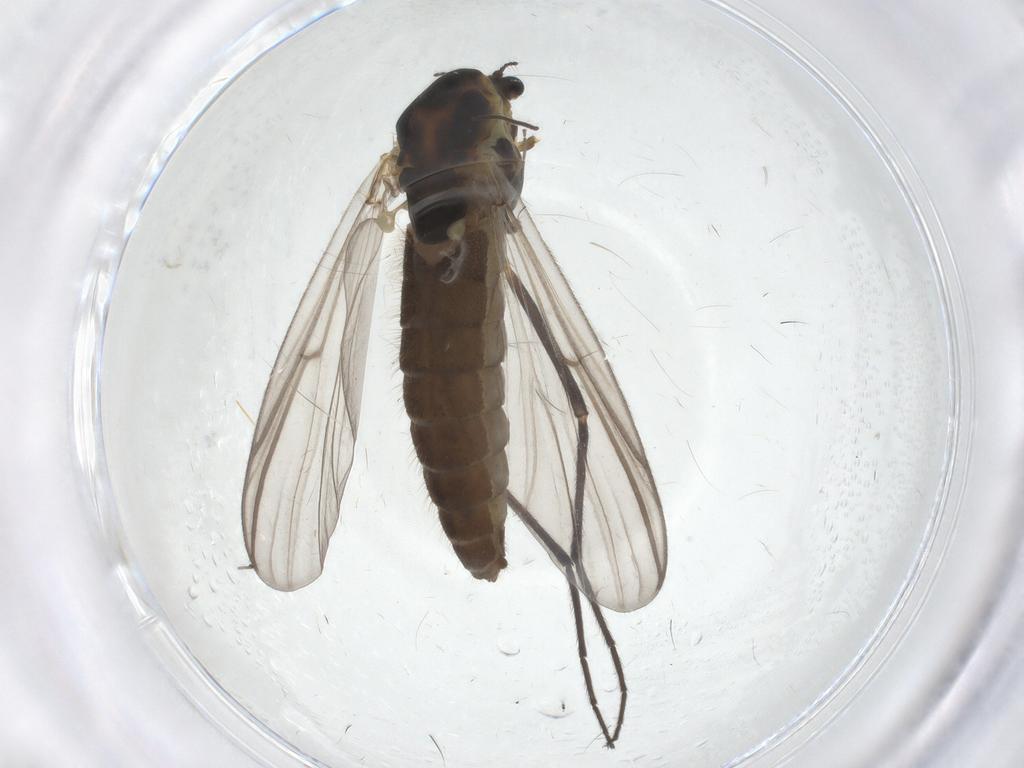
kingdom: Animalia
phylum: Arthropoda
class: Insecta
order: Diptera
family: Chironomidae
